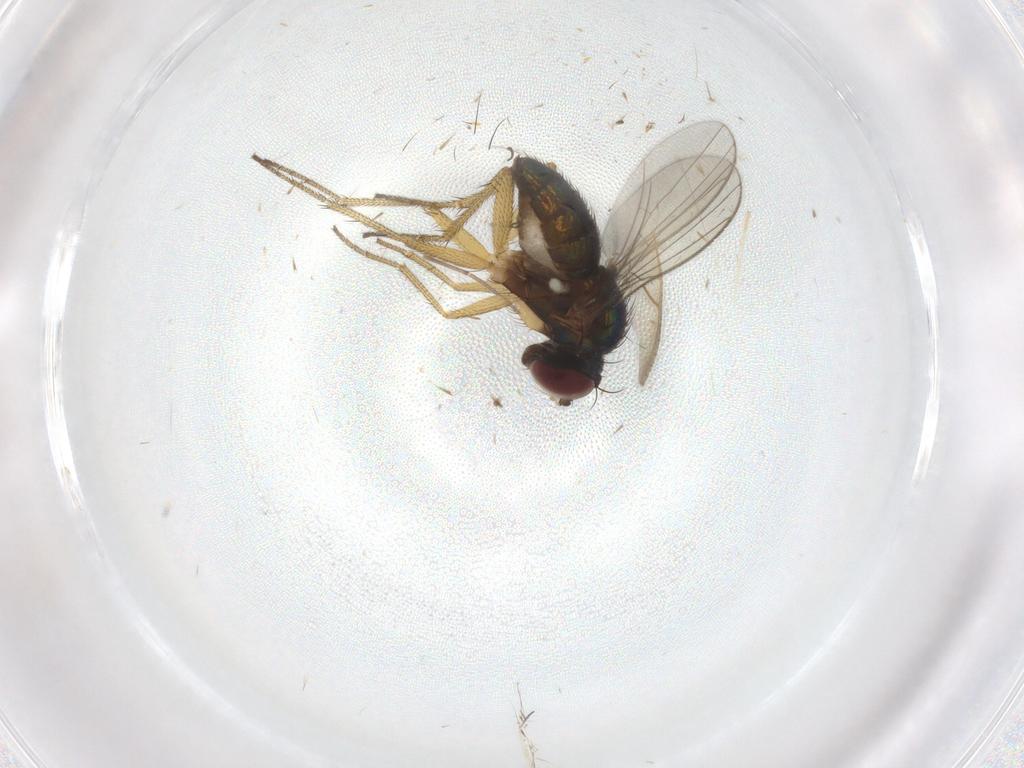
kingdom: Animalia
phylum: Arthropoda
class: Insecta
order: Diptera
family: Chironomidae
